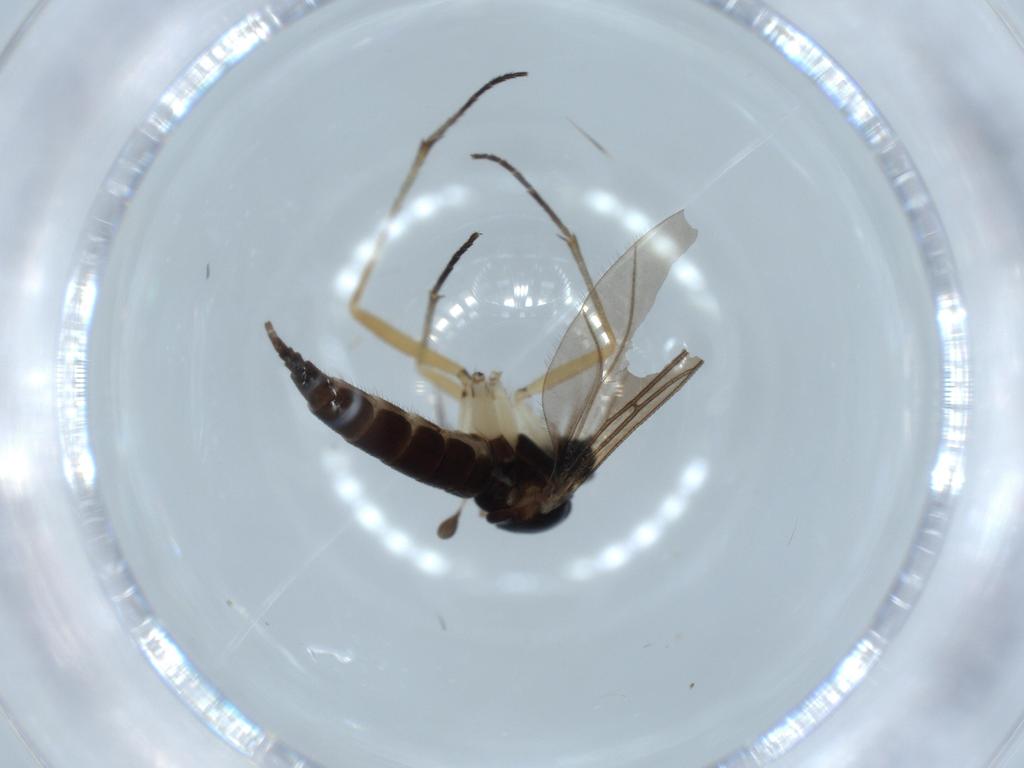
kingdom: Animalia
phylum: Arthropoda
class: Insecta
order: Diptera
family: Sciaridae
